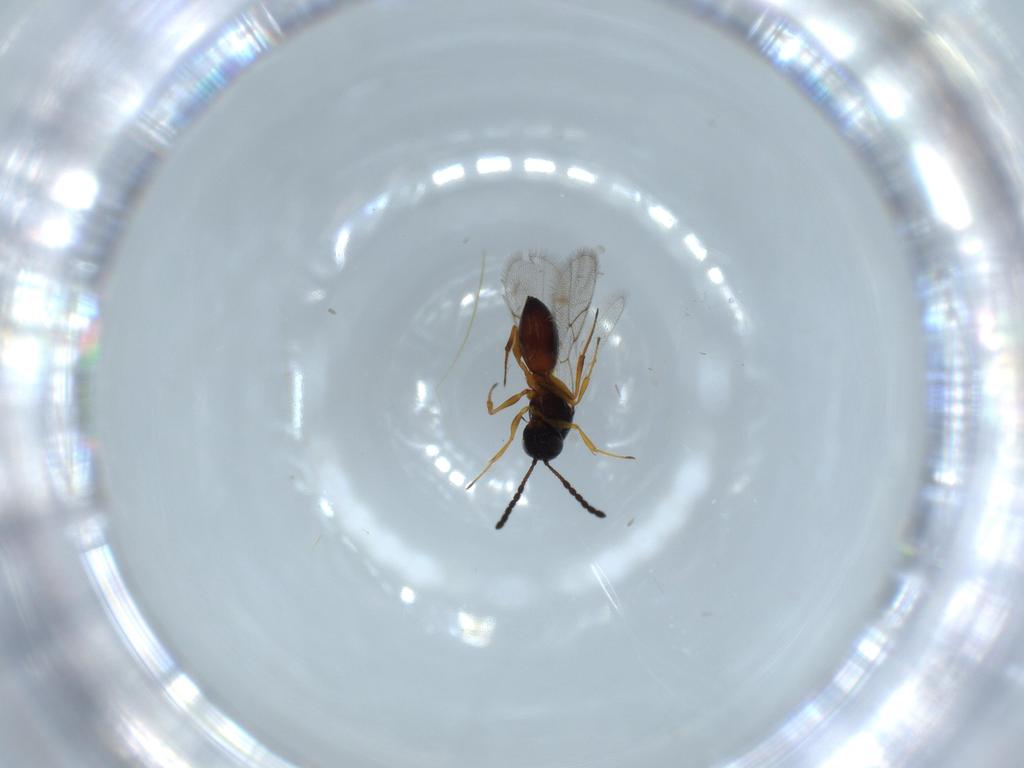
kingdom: Animalia
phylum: Arthropoda
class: Insecta
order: Hymenoptera
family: Figitidae
